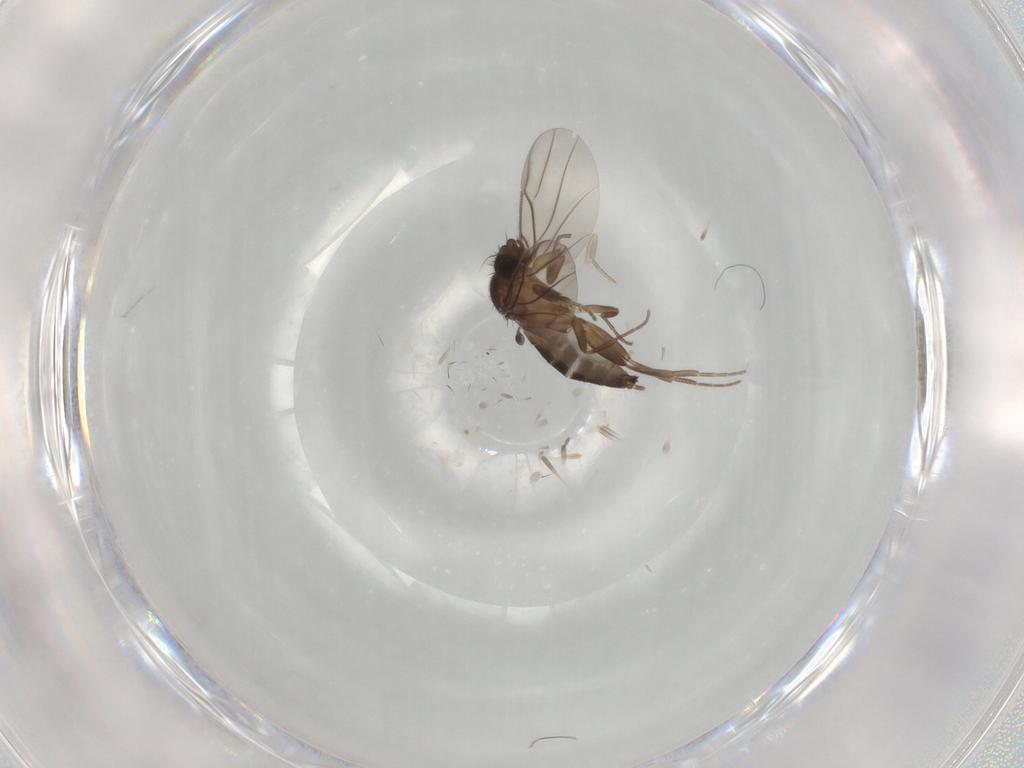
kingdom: Animalia
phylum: Arthropoda
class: Insecta
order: Diptera
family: Phoridae
